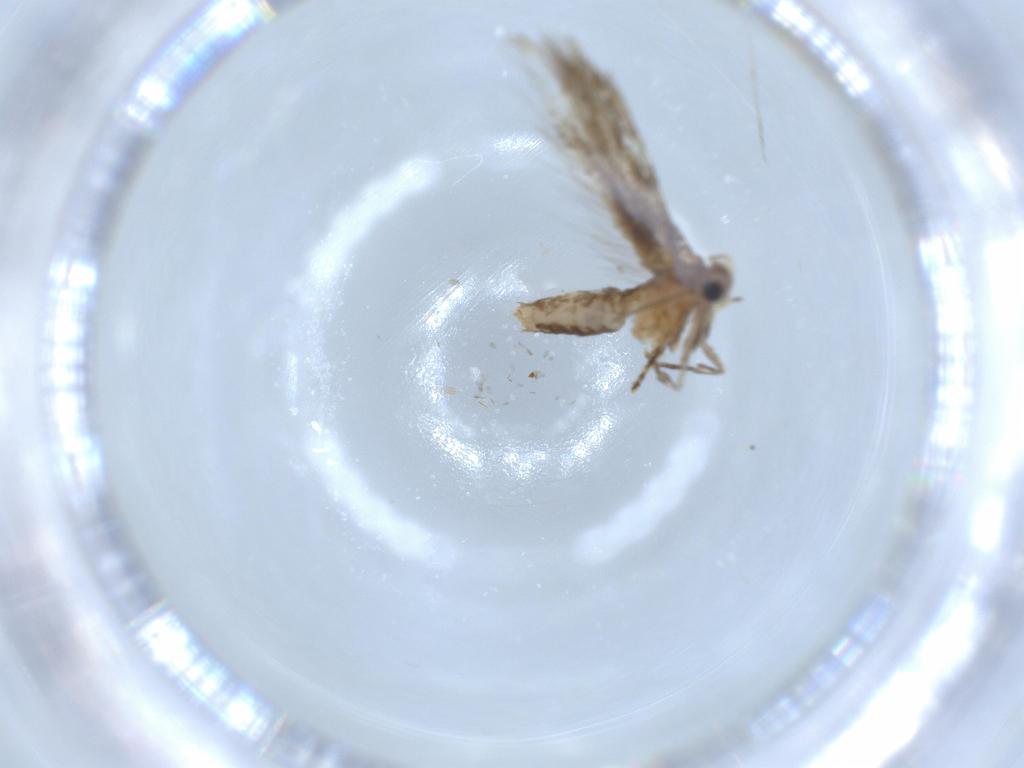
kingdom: Animalia
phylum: Arthropoda
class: Insecta
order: Lepidoptera
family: Tineidae
